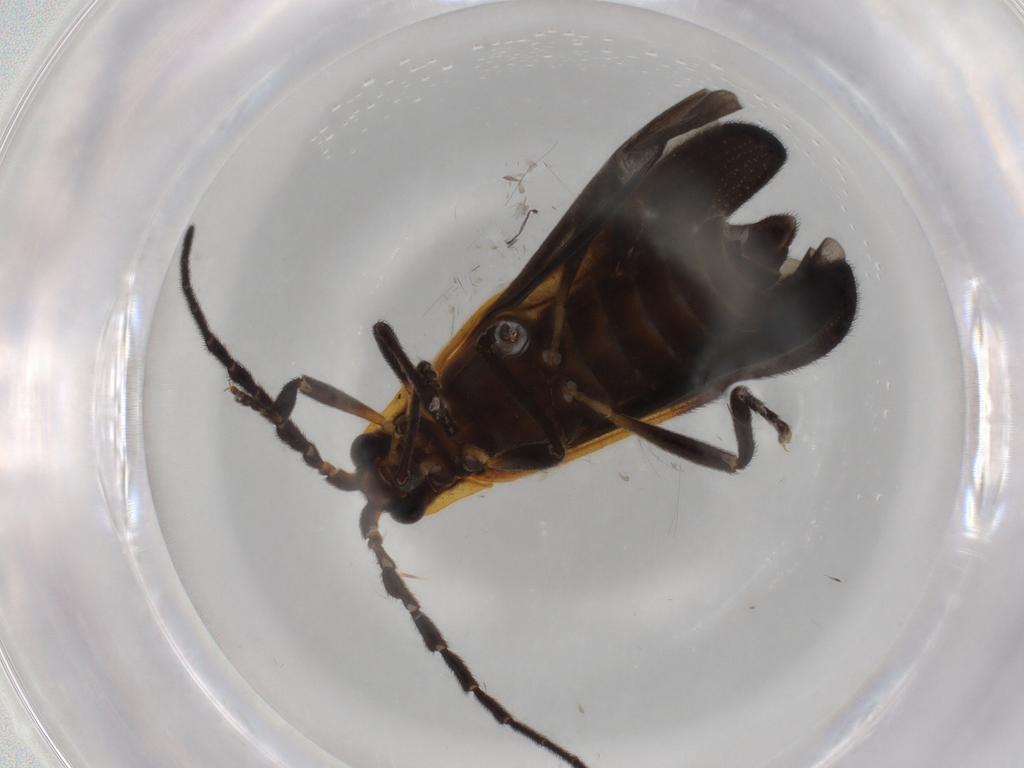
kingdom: Animalia
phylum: Arthropoda
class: Insecta
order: Coleoptera
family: Lycidae
